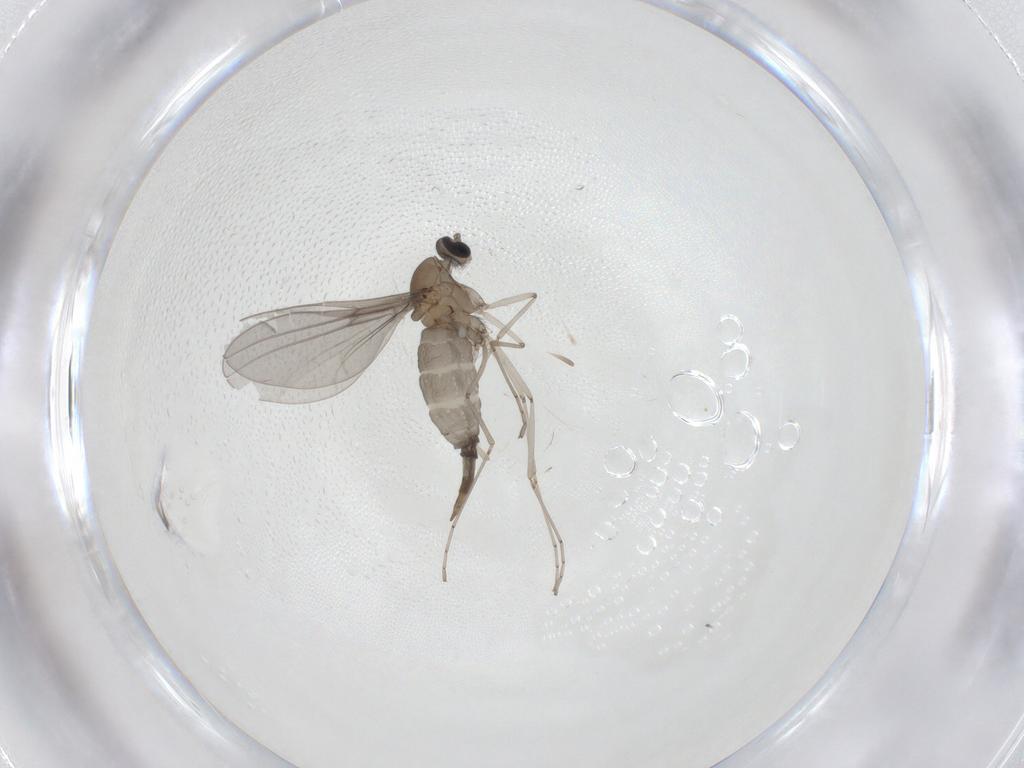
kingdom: Animalia
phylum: Arthropoda
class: Insecta
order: Diptera
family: Cecidomyiidae
